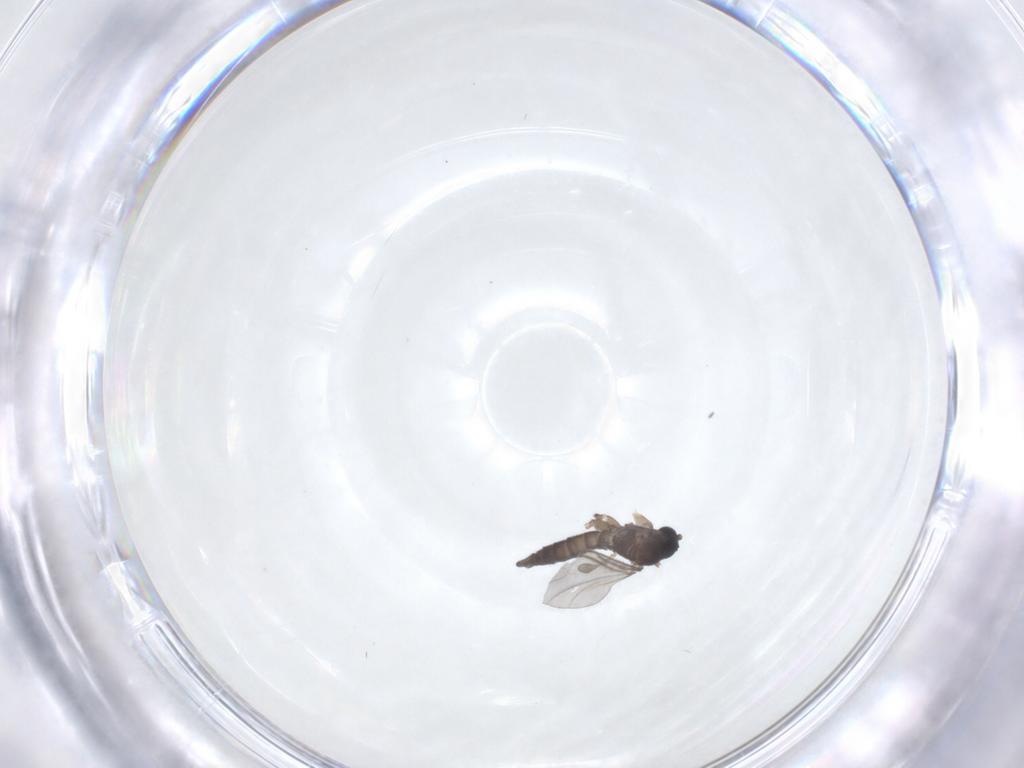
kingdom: Animalia
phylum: Arthropoda
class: Insecta
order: Diptera
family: Sciaridae
